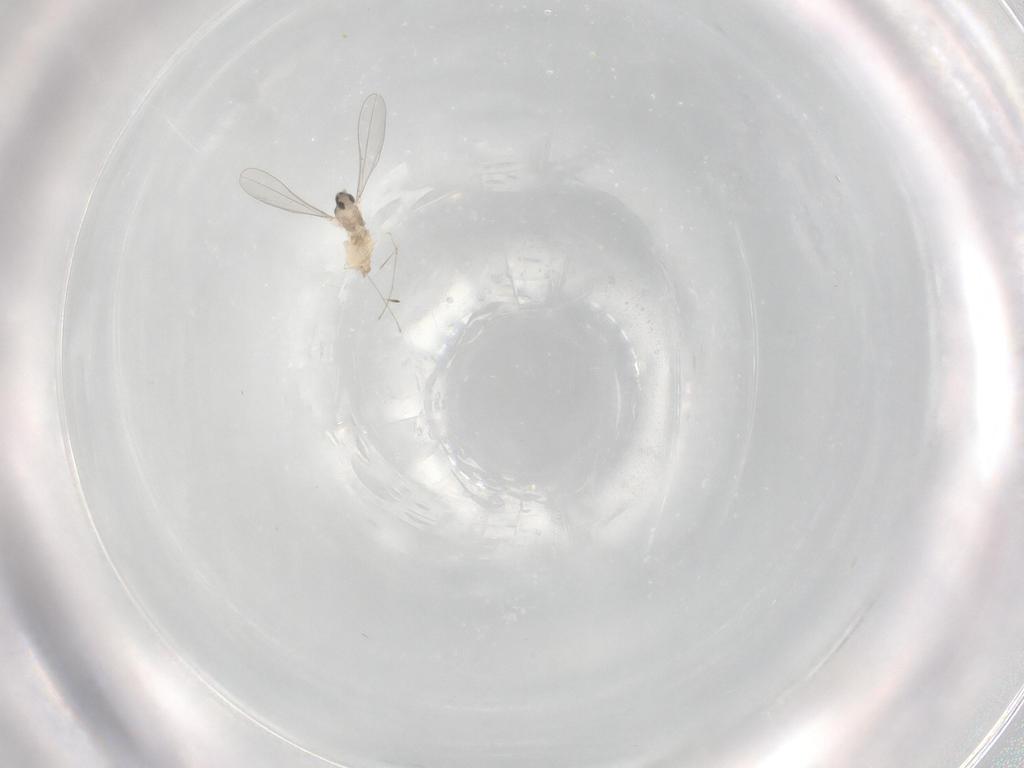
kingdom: Animalia
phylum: Arthropoda
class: Insecta
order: Diptera
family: Cecidomyiidae
